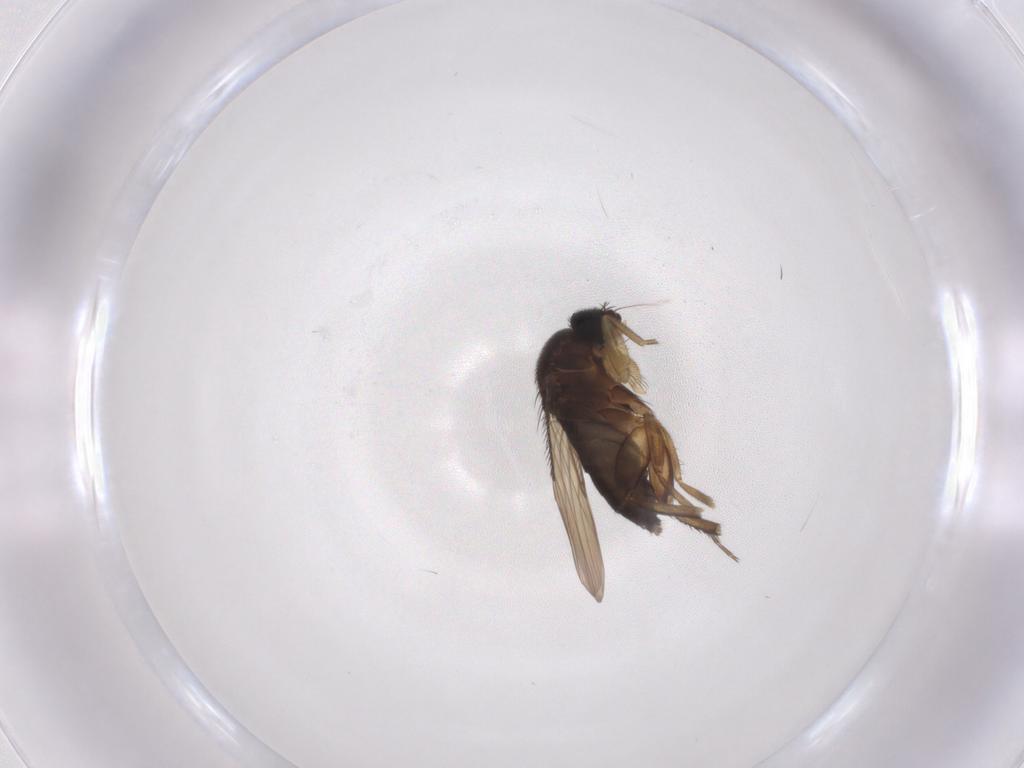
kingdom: Animalia
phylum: Arthropoda
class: Insecta
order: Diptera
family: Phoridae
